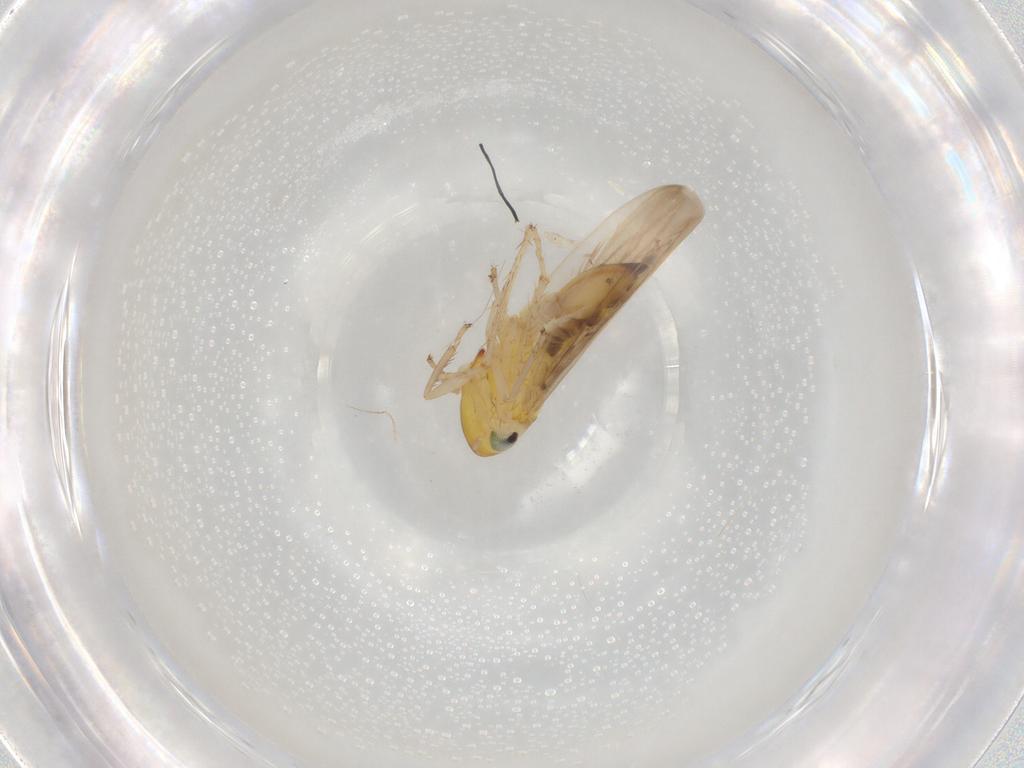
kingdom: Animalia
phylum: Arthropoda
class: Insecta
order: Hemiptera
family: Cicadellidae
